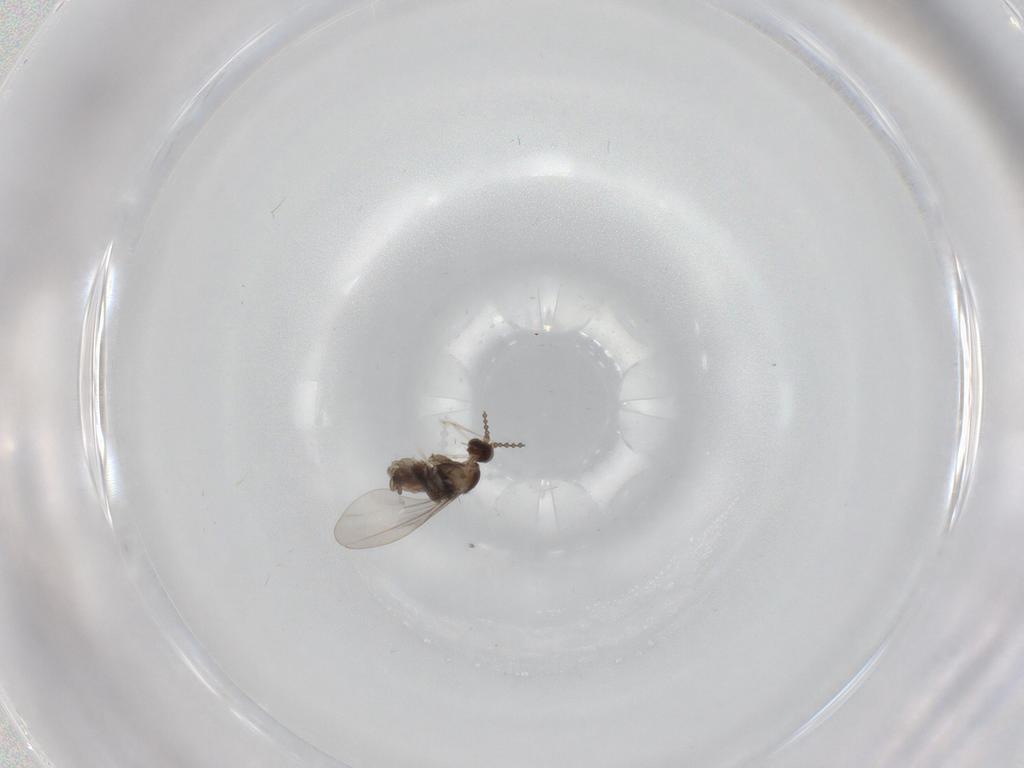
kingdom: Animalia
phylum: Arthropoda
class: Insecta
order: Diptera
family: Cecidomyiidae
